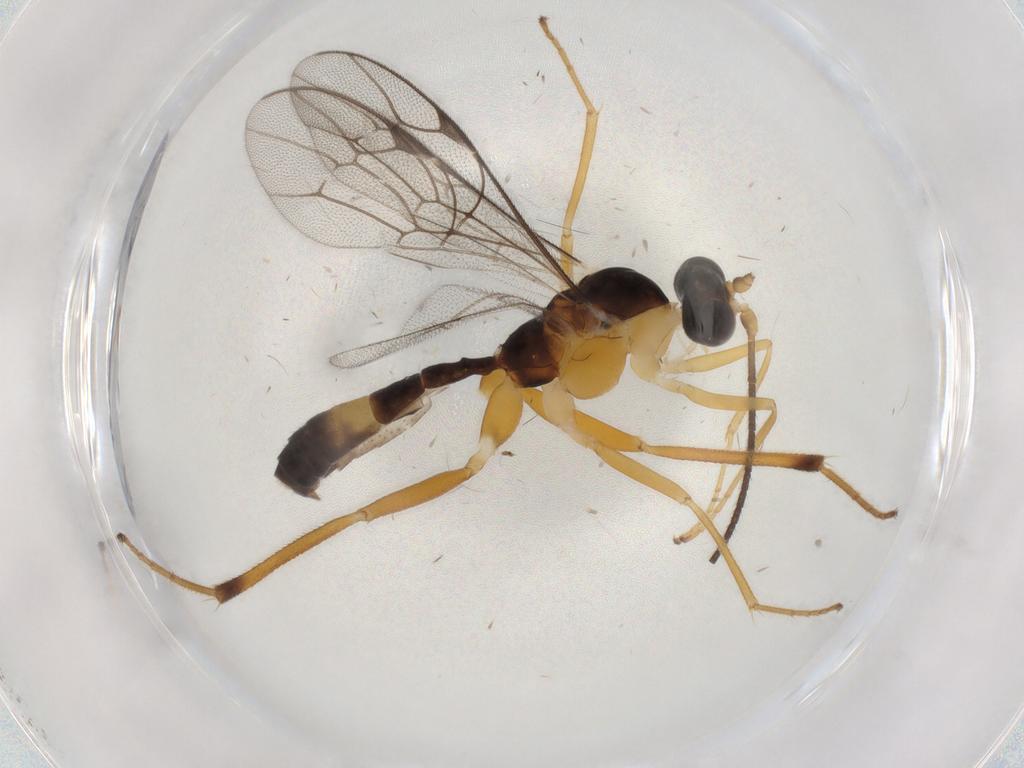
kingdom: Animalia
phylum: Arthropoda
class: Insecta
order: Hymenoptera
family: Ichneumonidae
